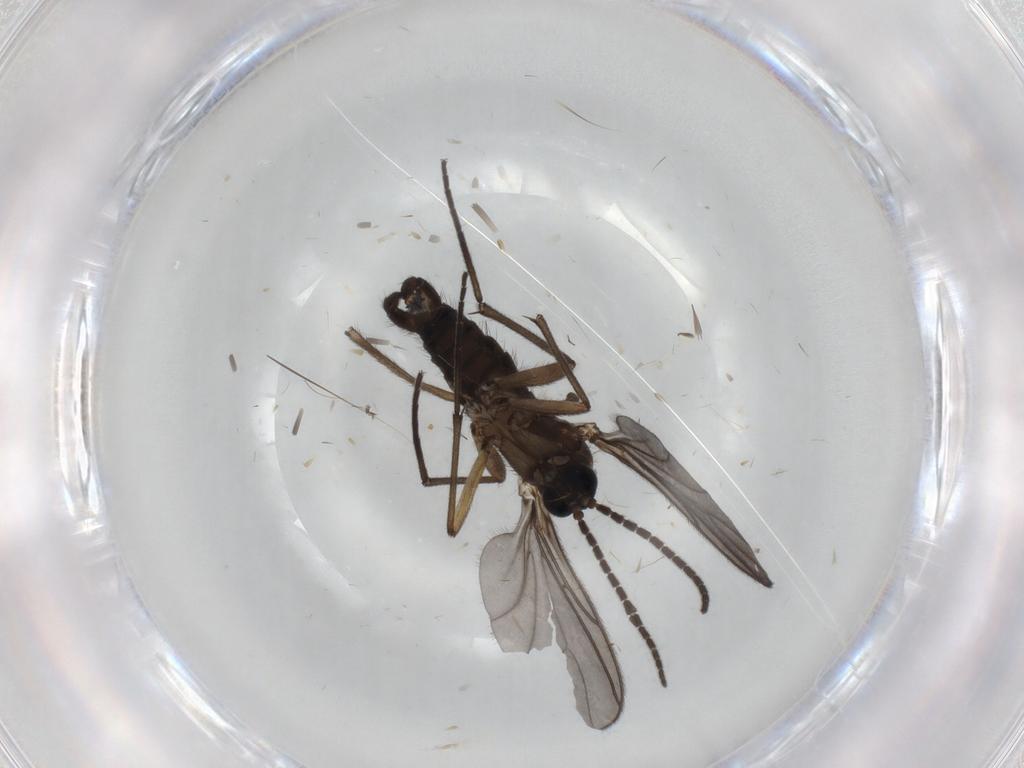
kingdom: Animalia
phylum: Arthropoda
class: Insecta
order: Diptera
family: Sciaridae
